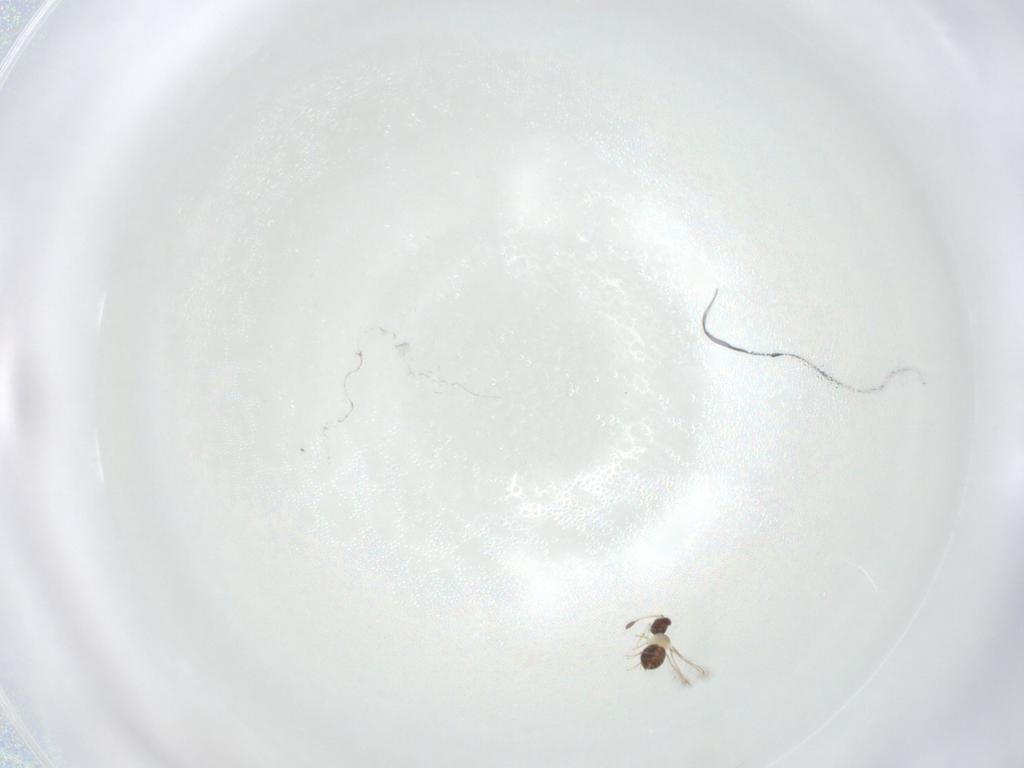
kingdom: Animalia
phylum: Arthropoda
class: Insecta
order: Hymenoptera
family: Mymaridae
